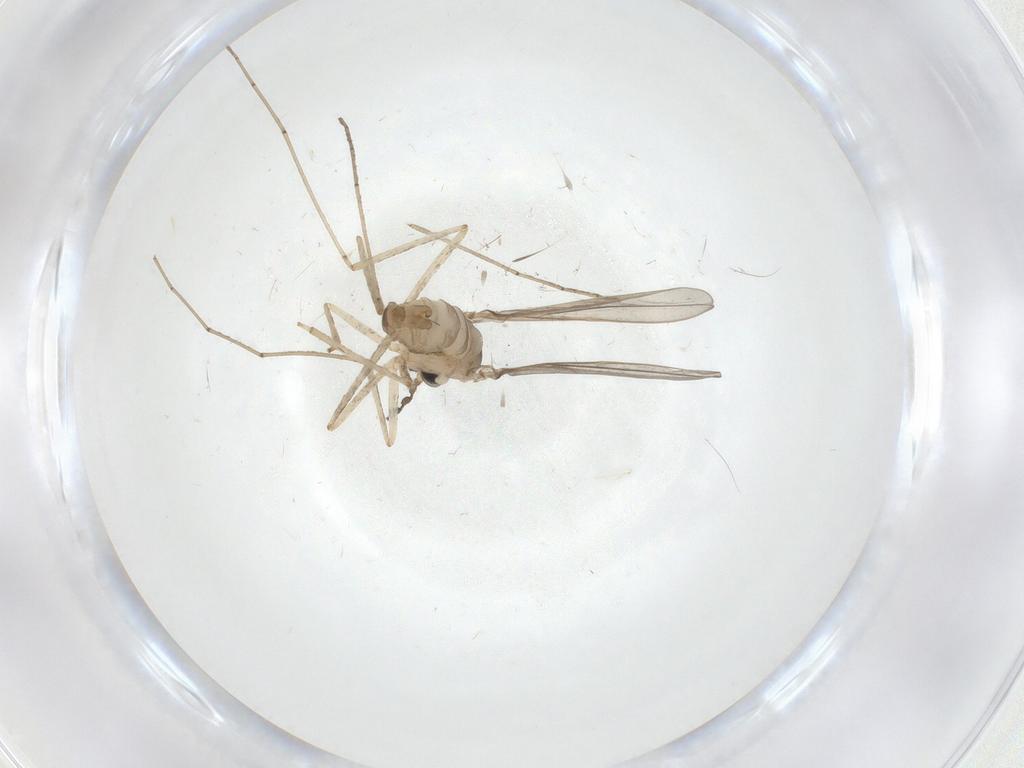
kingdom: Animalia
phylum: Arthropoda
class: Insecta
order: Diptera
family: Cecidomyiidae
